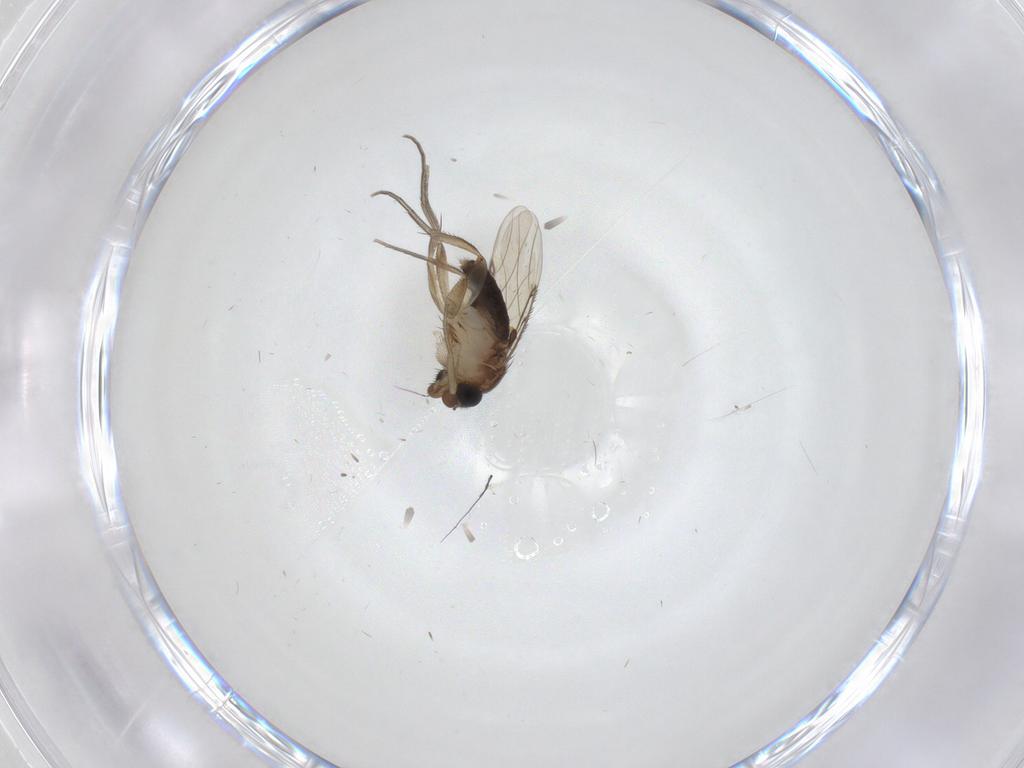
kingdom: Animalia
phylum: Arthropoda
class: Insecta
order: Diptera
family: Phoridae
